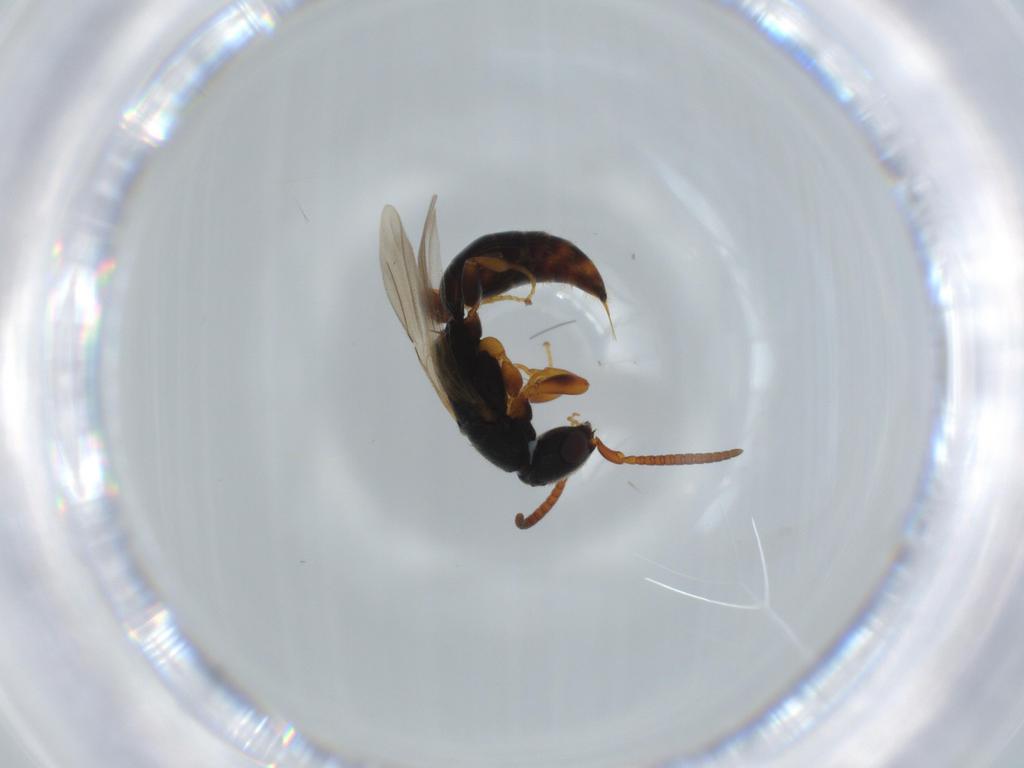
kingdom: Animalia
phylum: Arthropoda
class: Insecta
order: Hymenoptera
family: Bethylidae
